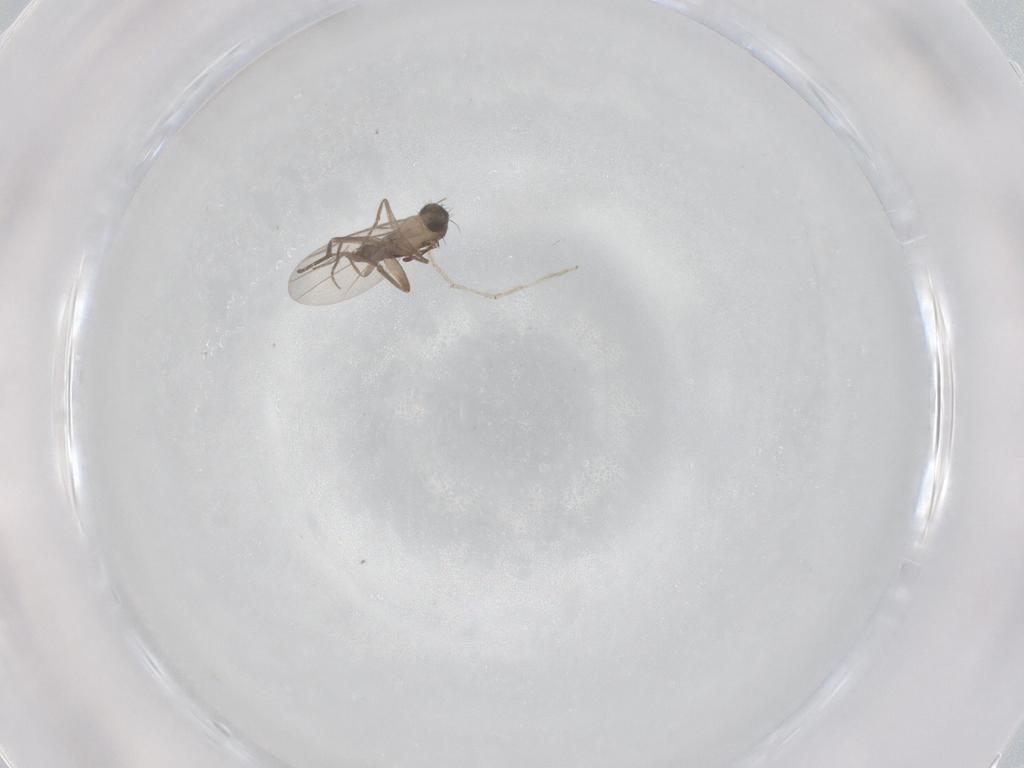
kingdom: Animalia
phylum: Arthropoda
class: Insecta
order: Diptera
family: Phoridae
